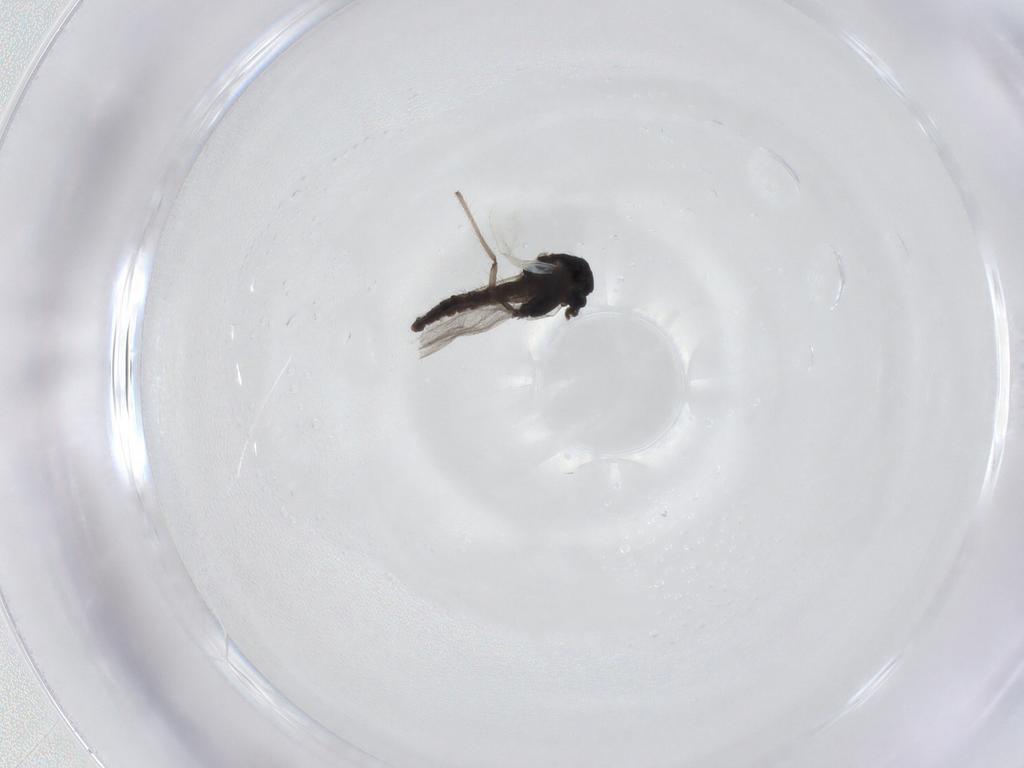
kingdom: Animalia
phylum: Arthropoda
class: Insecta
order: Diptera
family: Cecidomyiidae
